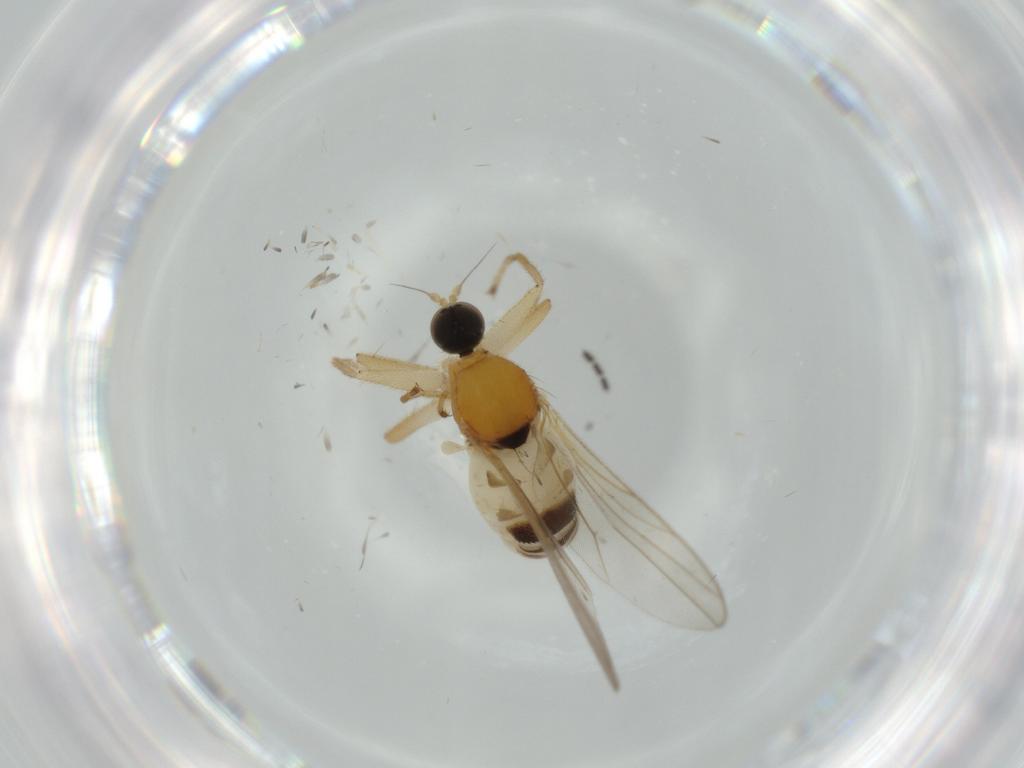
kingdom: Animalia
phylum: Arthropoda
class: Insecta
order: Diptera
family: Hybotidae
